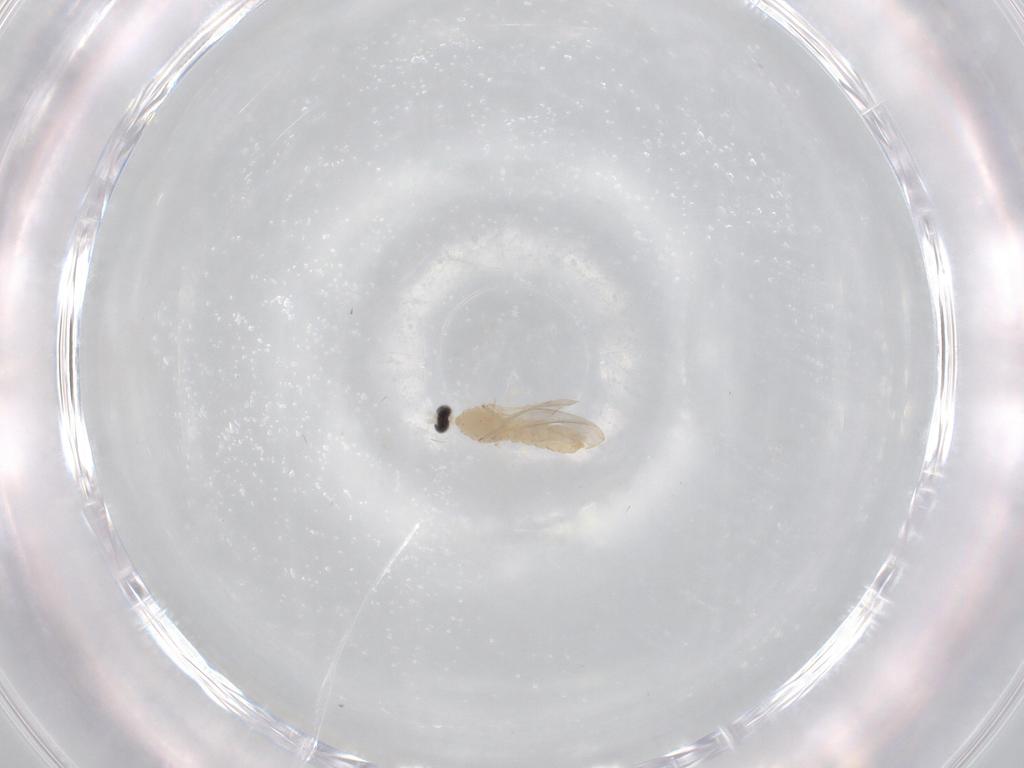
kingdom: Animalia
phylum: Arthropoda
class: Insecta
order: Diptera
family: Cecidomyiidae
